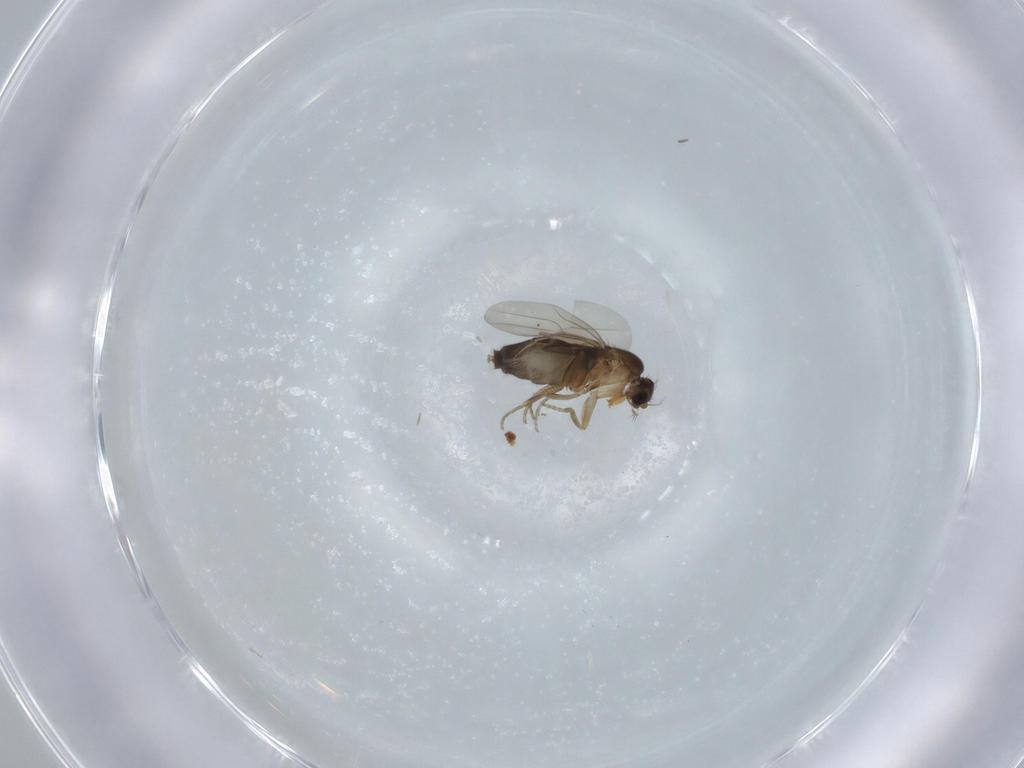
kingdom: Animalia
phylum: Arthropoda
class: Insecta
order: Diptera
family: Phoridae
